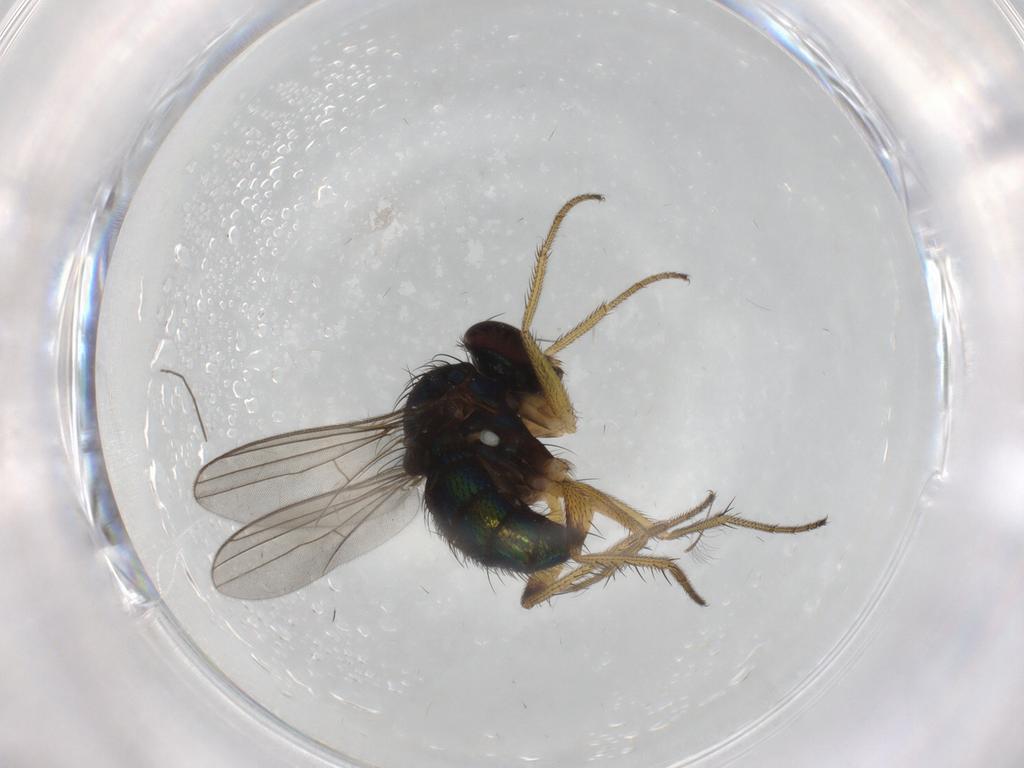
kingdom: Animalia
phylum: Arthropoda
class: Insecta
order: Diptera
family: Dolichopodidae
